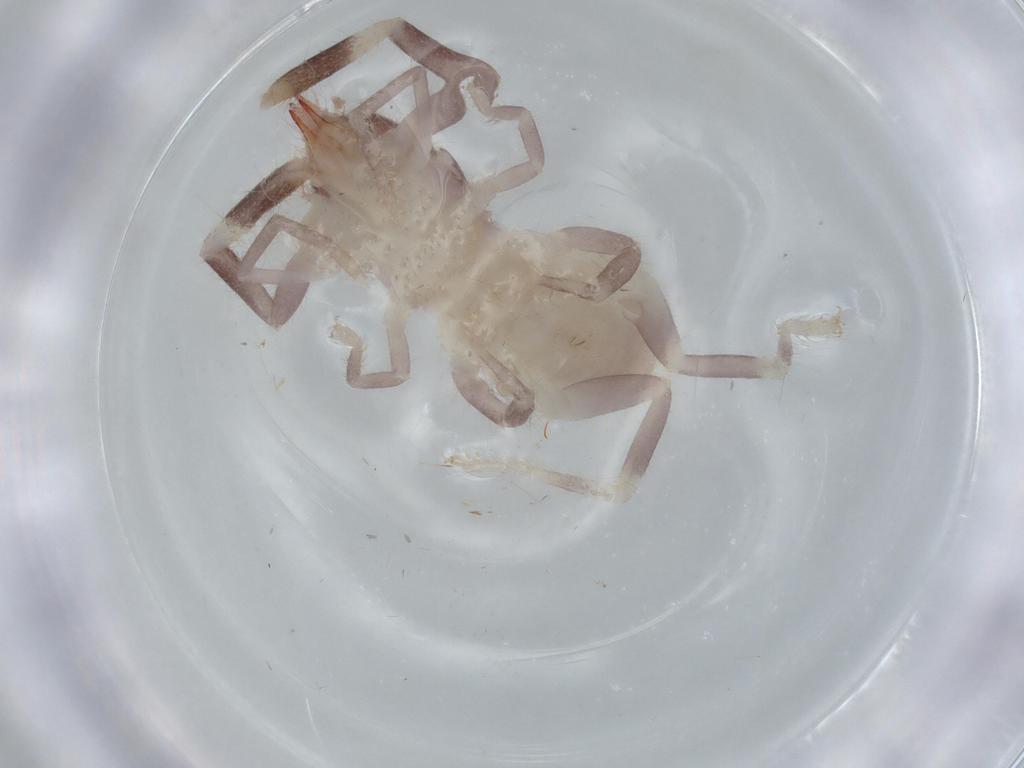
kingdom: Animalia
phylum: Arthropoda
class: Arachnida
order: Solifugae
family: Ammotrechidae
